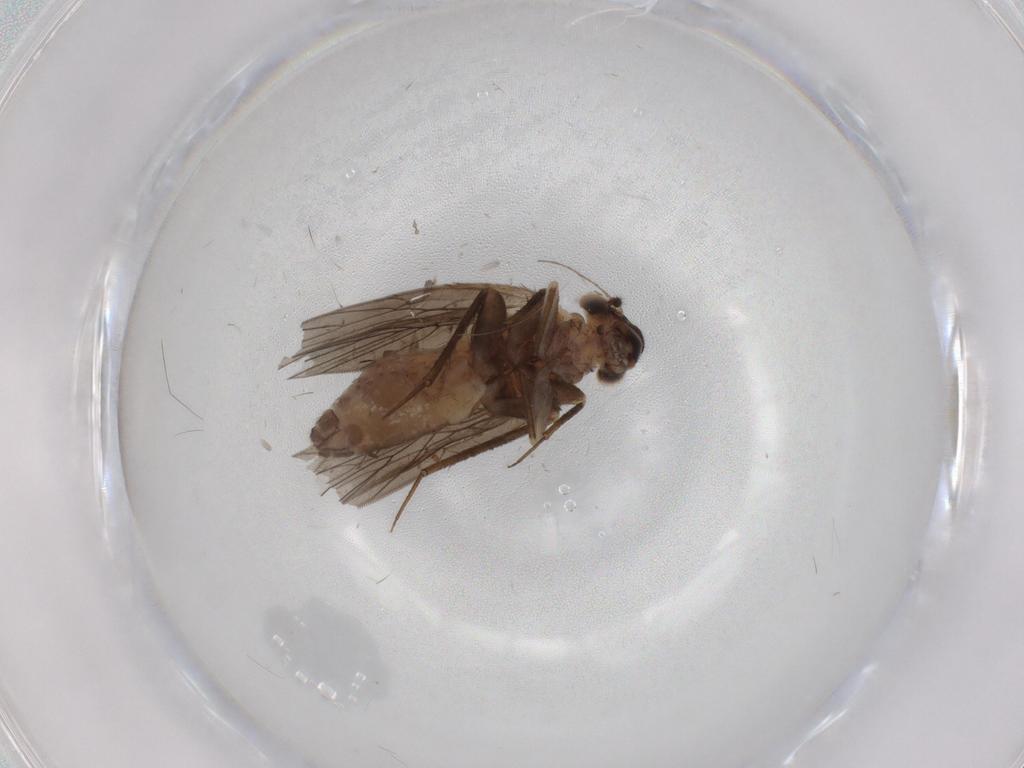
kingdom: Animalia
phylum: Arthropoda
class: Insecta
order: Psocodea
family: Lepidopsocidae
